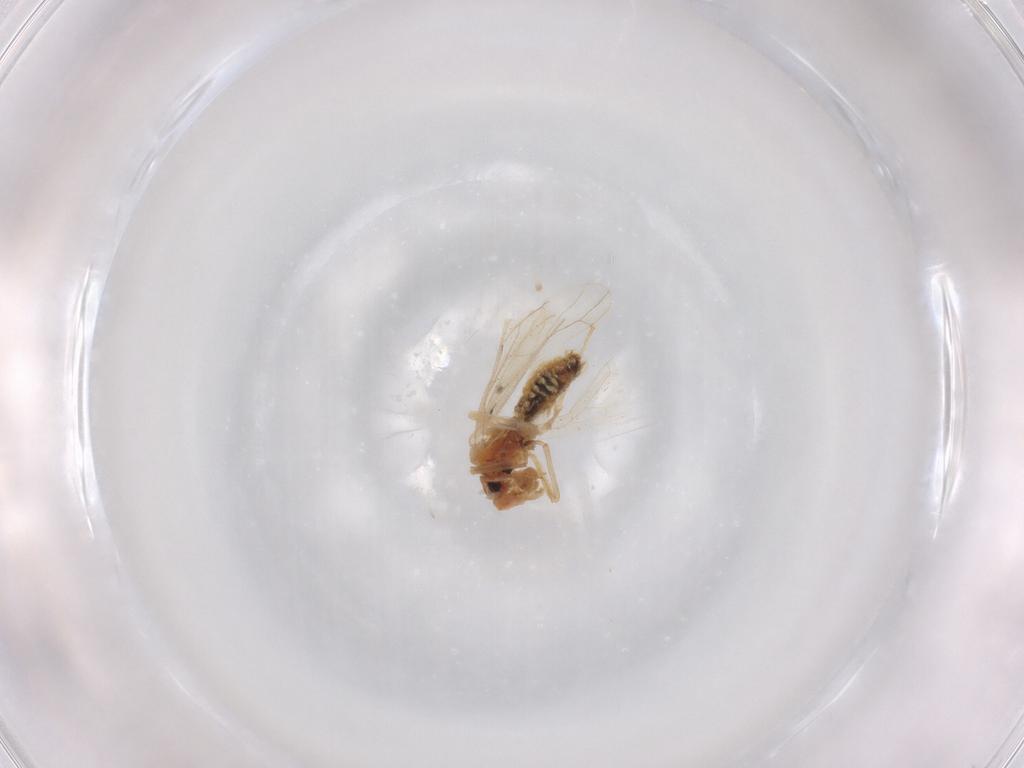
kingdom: Animalia
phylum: Arthropoda
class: Insecta
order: Psocodea
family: Caeciliusidae
